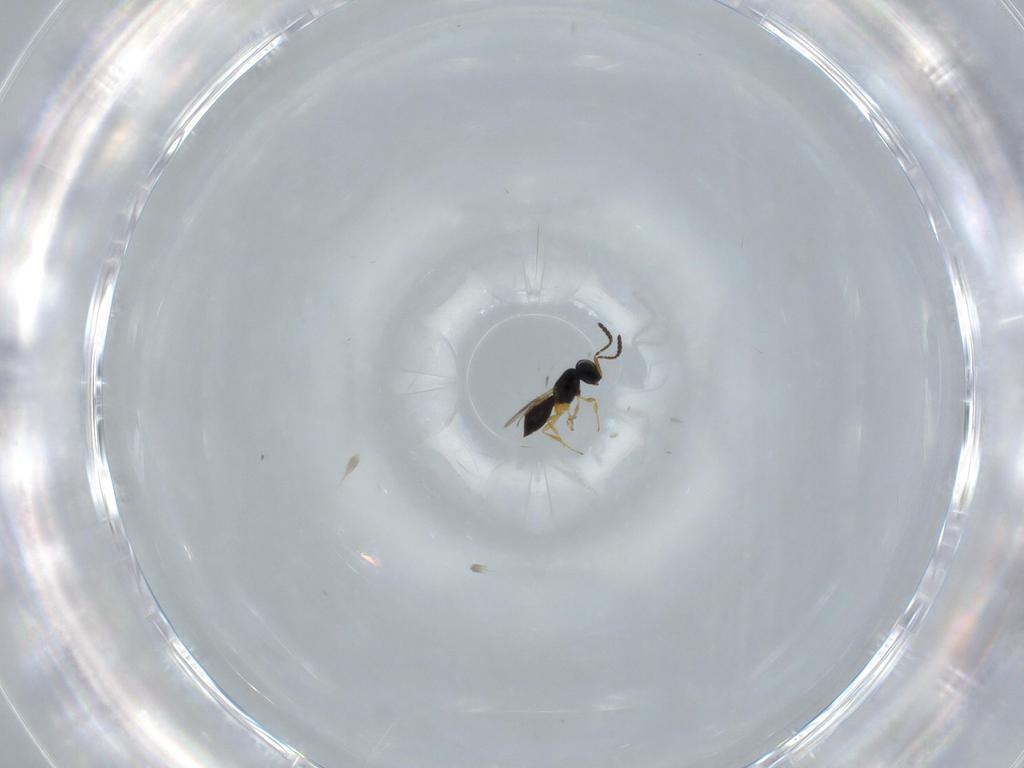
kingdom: Animalia
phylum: Arthropoda
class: Insecta
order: Hymenoptera
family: Scelionidae
